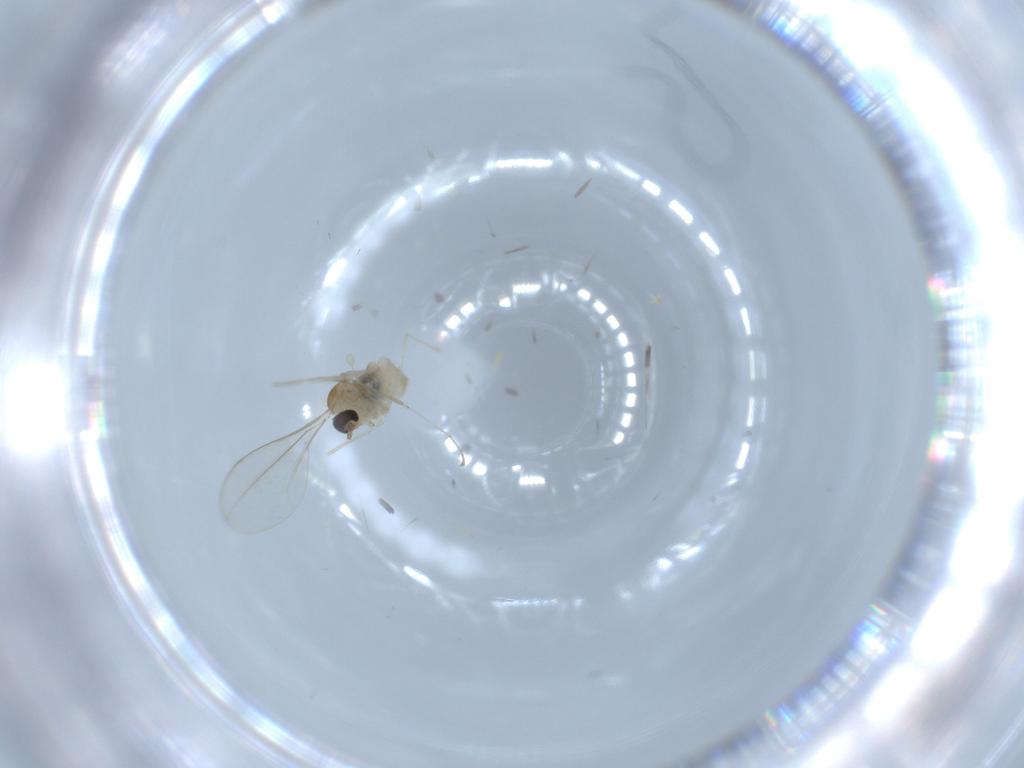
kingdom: Animalia
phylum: Arthropoda
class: Insecta
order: Diptera
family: Cecidomyiidae
